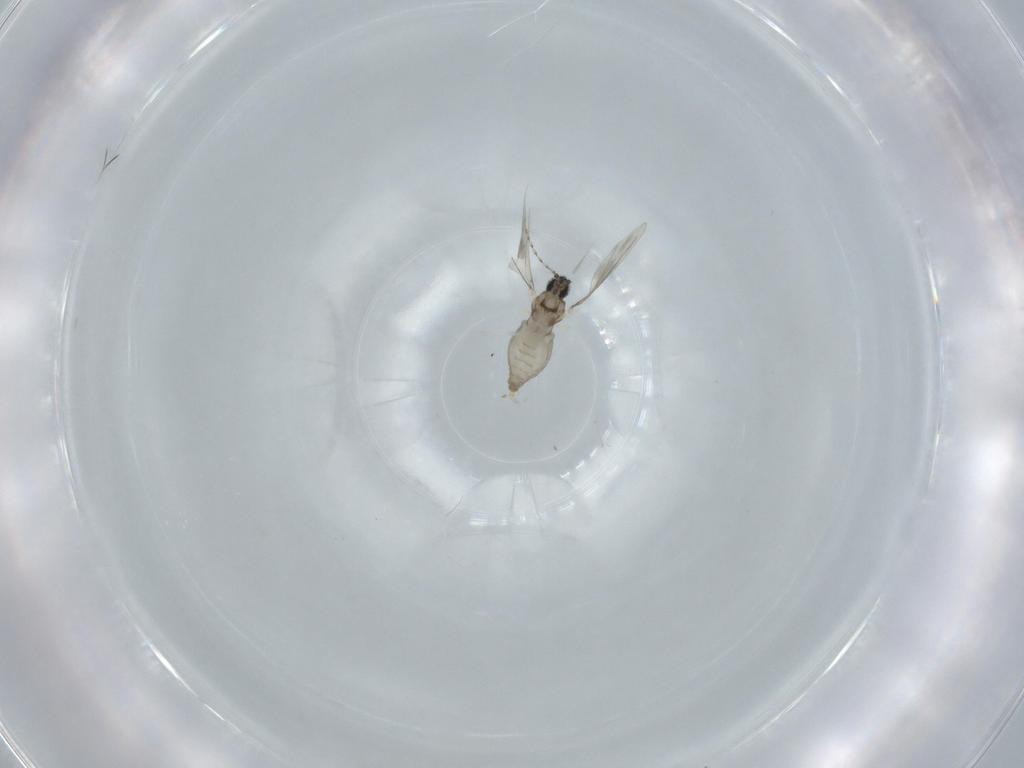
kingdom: Animalia
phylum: Arthropoda
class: Insecta
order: Diptera
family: Cecidomyiidae
